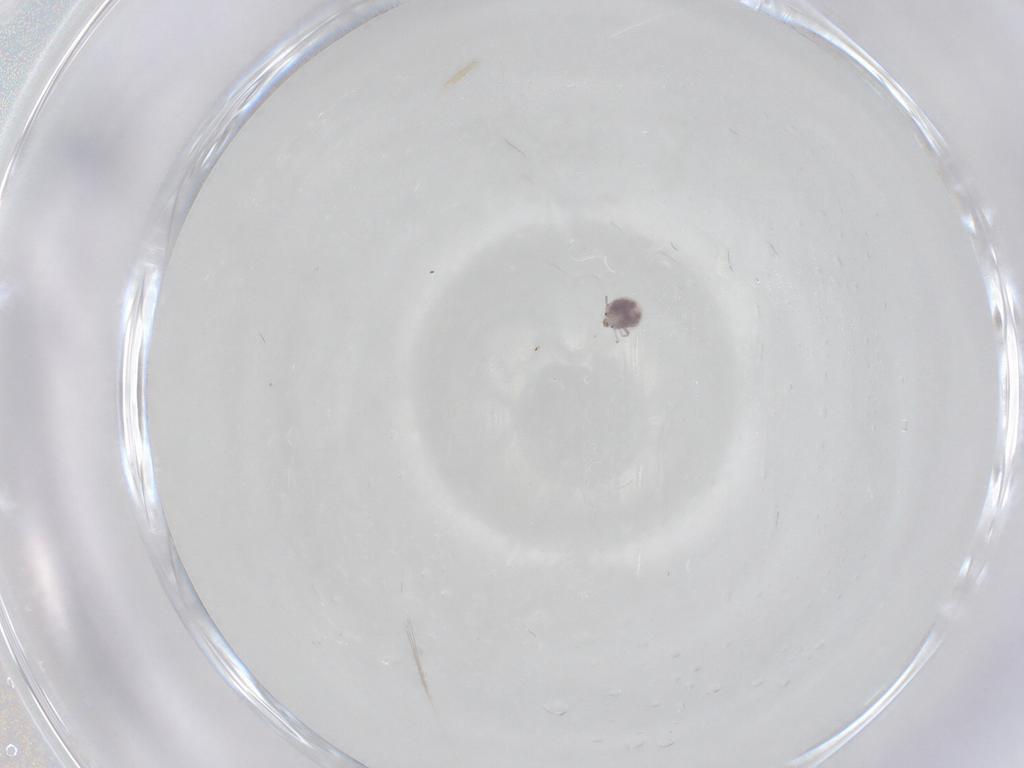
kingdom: Animalia
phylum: Arthropoda
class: Arachnida
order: Trombidiformes
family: Pionidae
